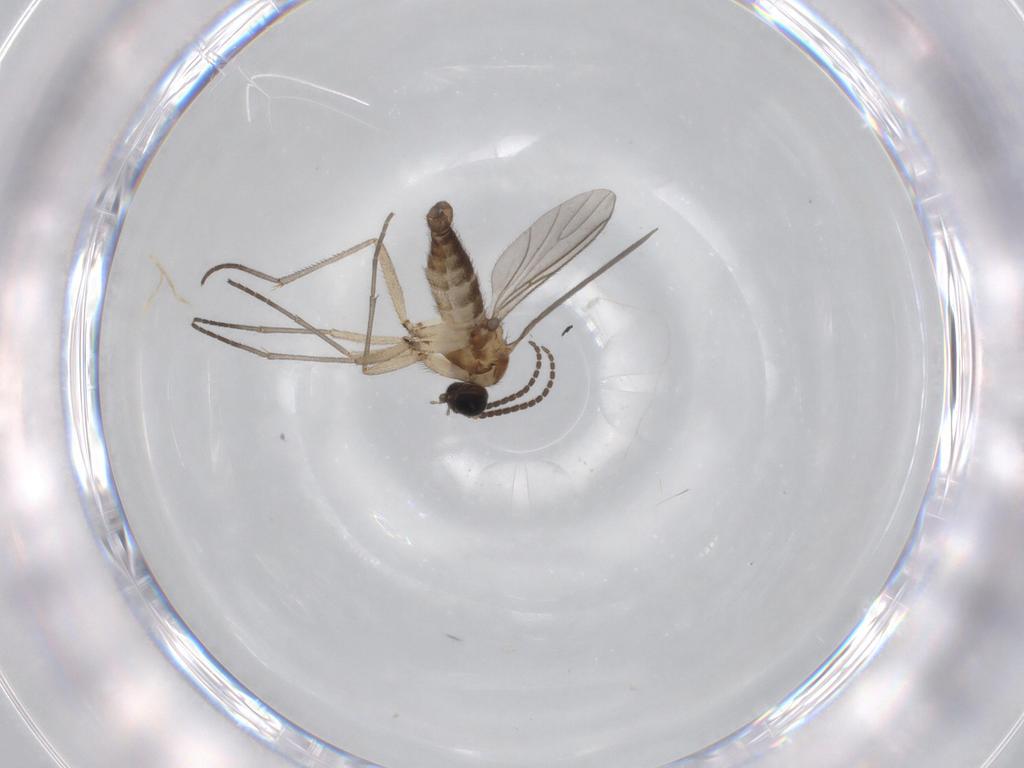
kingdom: Animalia
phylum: Arthropoda
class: Insecta
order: Diptera
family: Sciaridae
